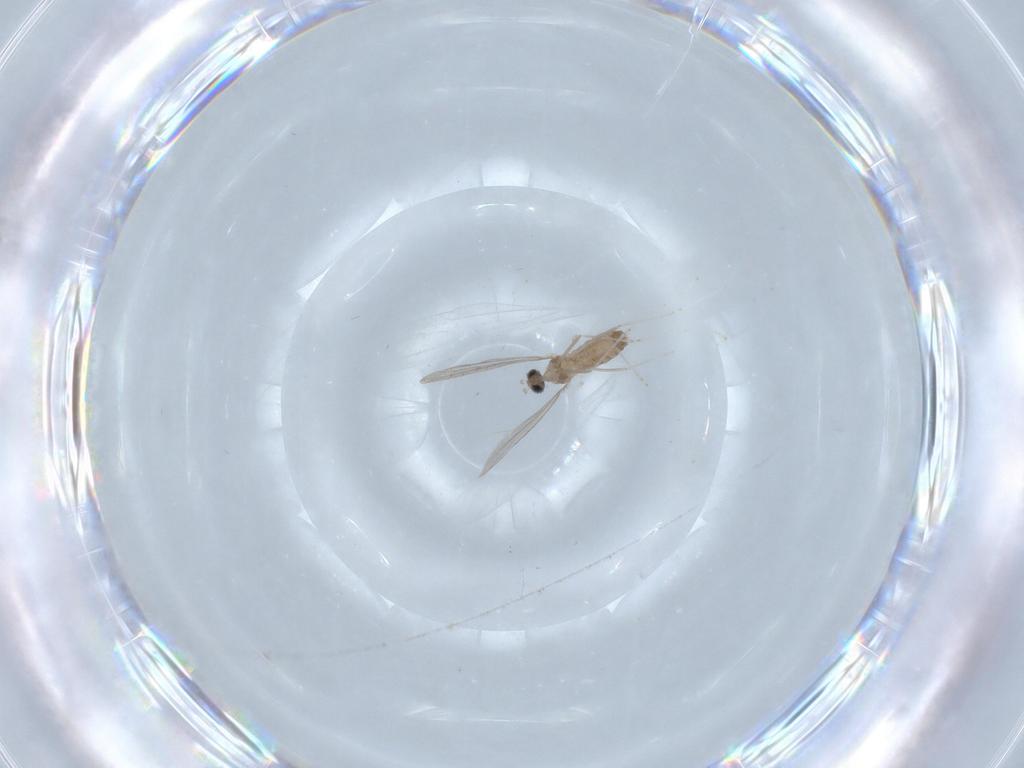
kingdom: Animalia
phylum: Arthropoda
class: Insecta
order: Diptera
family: Cecidomyiidae
